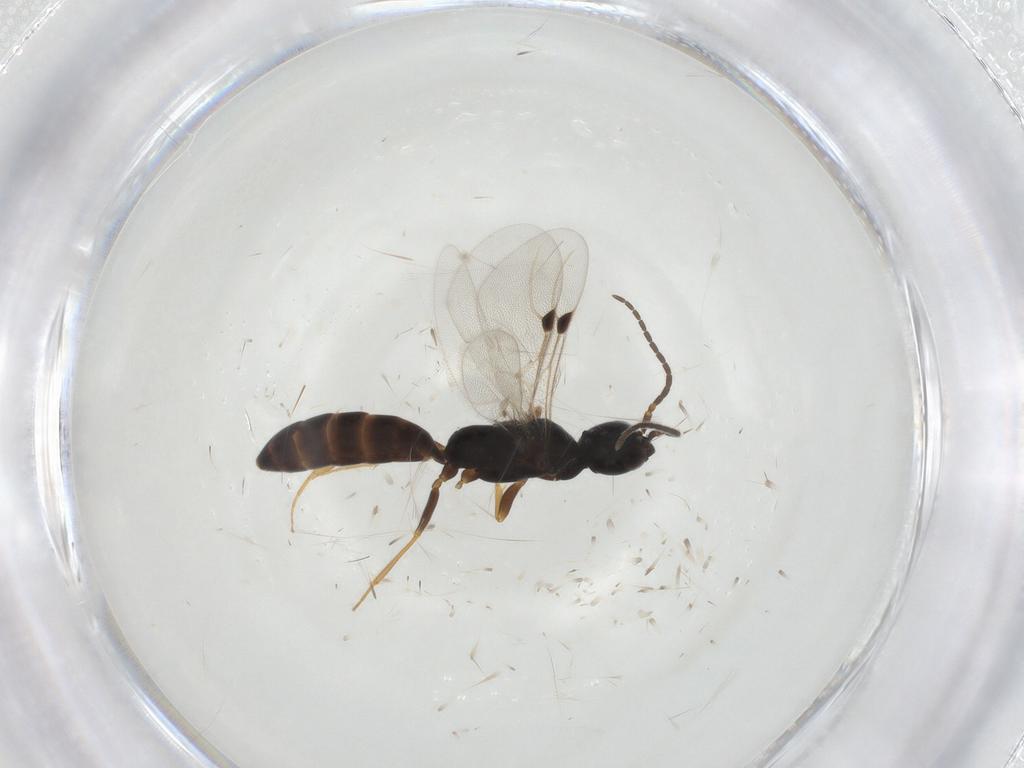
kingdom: Animalia
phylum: Arthropoda
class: Insecta
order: Hymenoptera
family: Bethylidae
